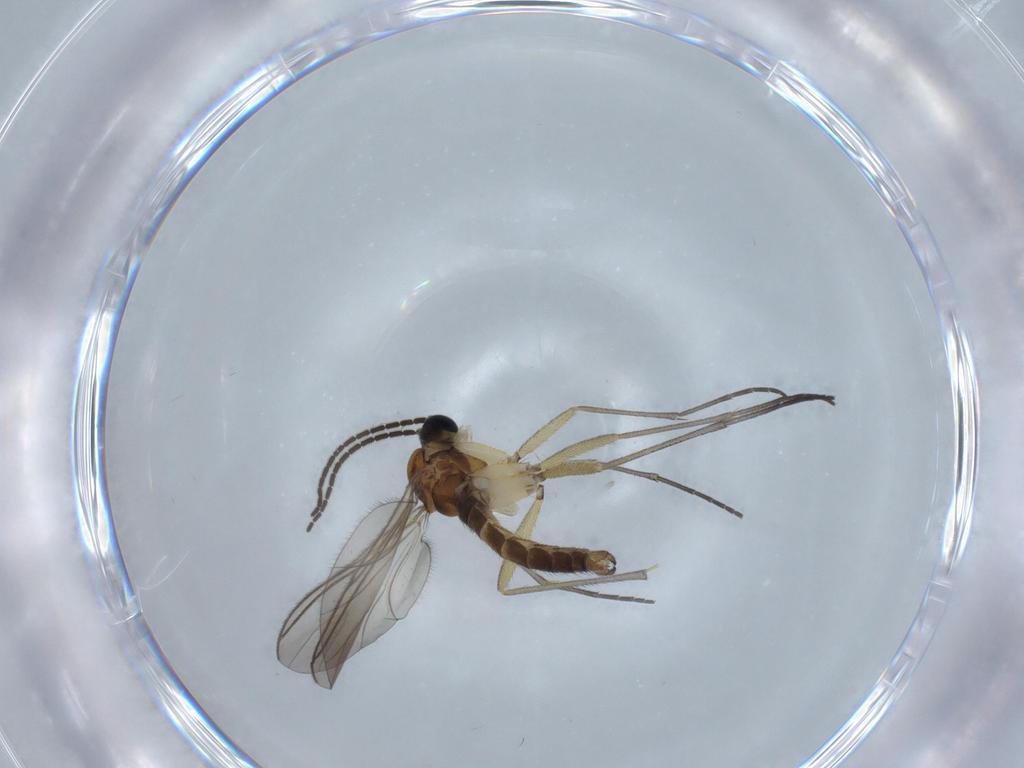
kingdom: Animalia
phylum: Arthropoda
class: Insecta
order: Diptera
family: Sciaridae
